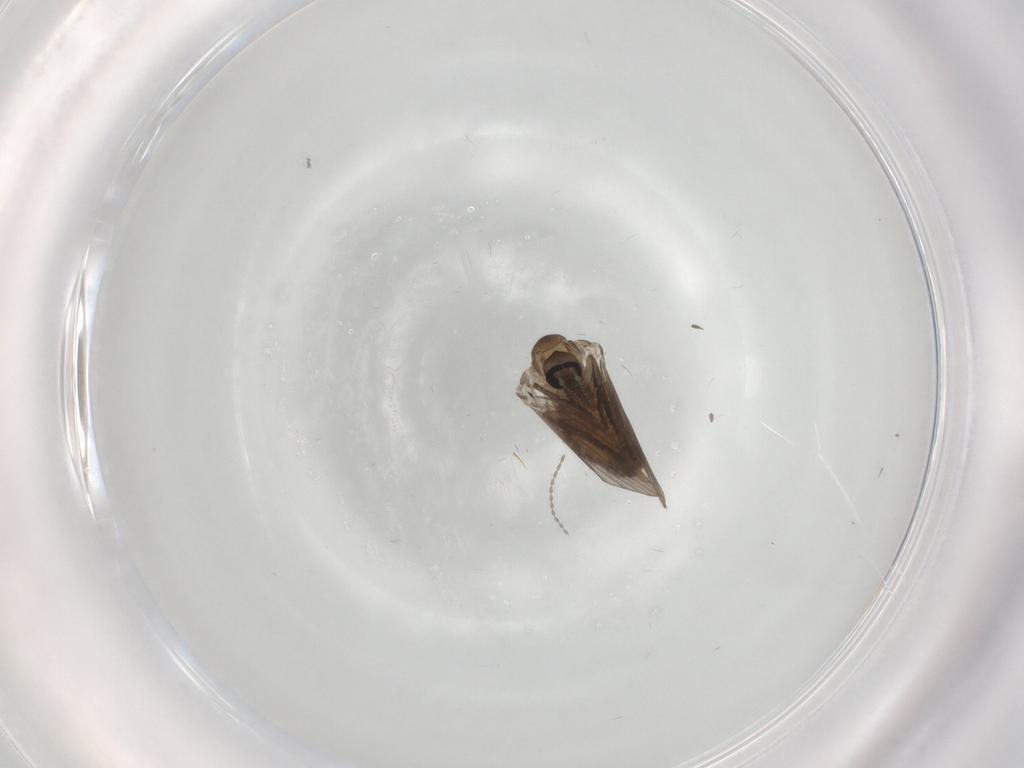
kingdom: Animalia
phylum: Arthropoda
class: Insecta
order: Diptera
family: Cecidomyiidae
